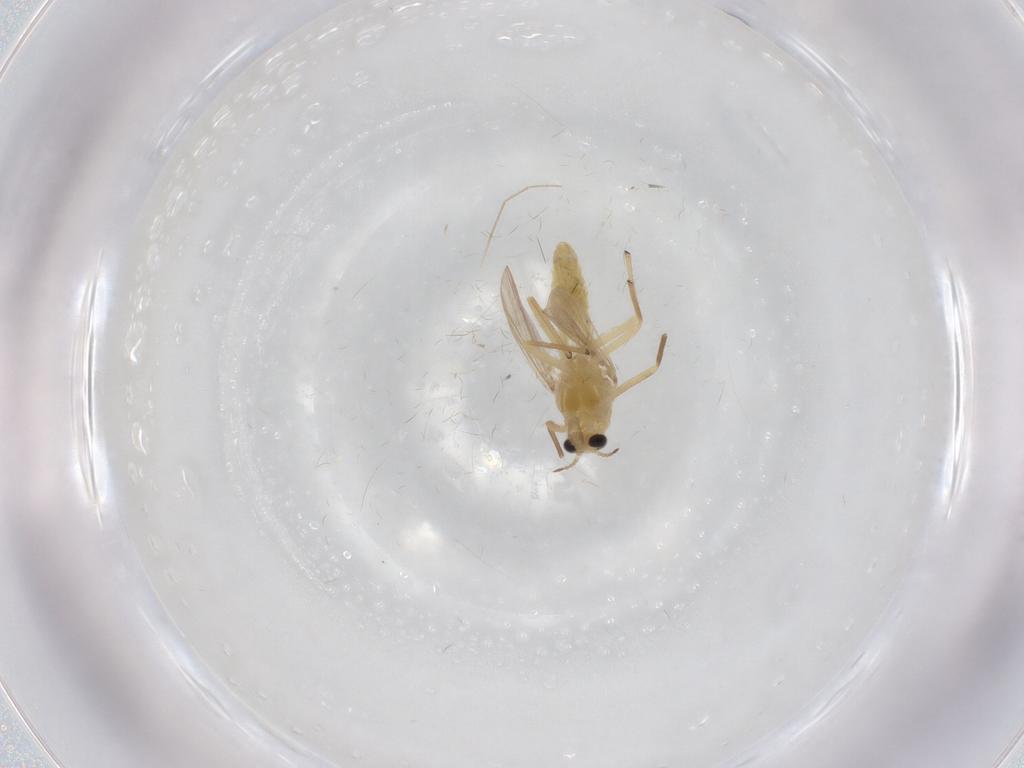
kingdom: Animalia
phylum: Arthropoda
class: Insecta
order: Diptera
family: Chironomidae
